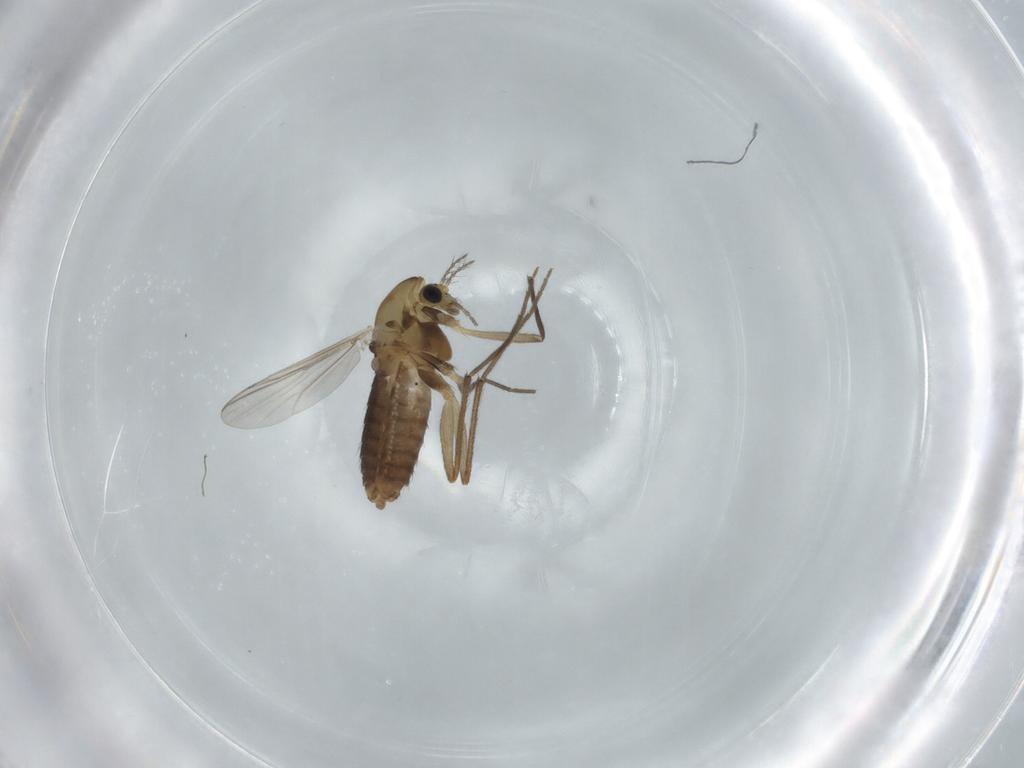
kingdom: Animalia
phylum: Arthropoda
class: Insecta
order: Diptera
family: Chironomidae
